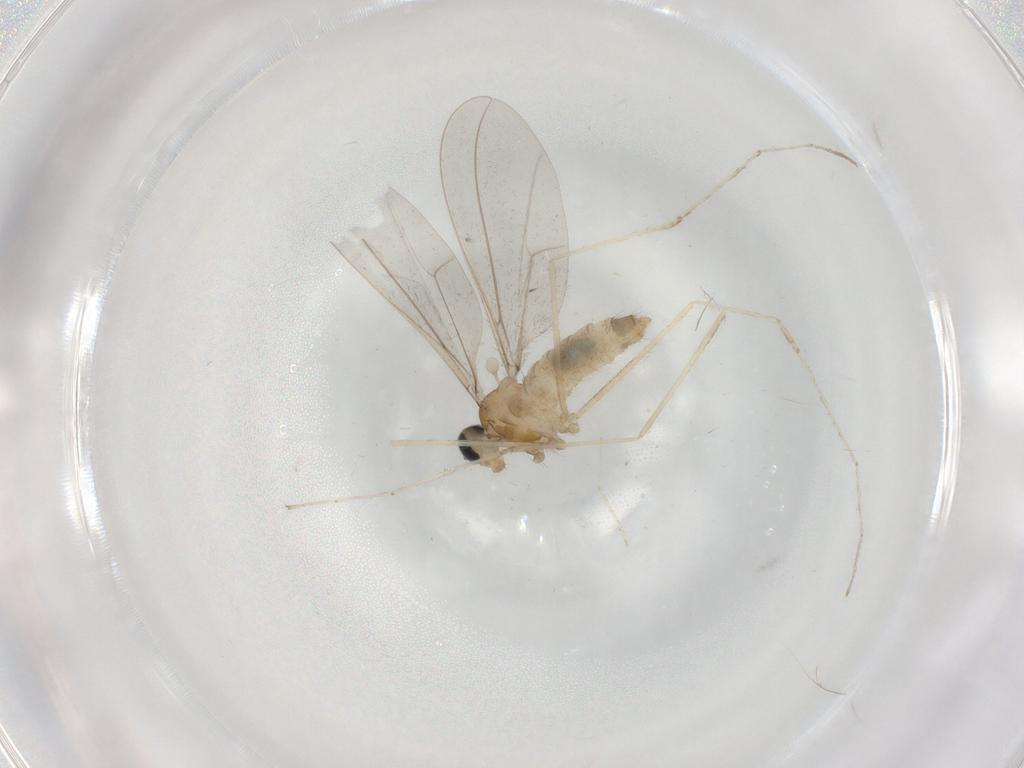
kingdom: Animalia
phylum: Arthropoda
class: Insecta
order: Diptera
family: Cecidomyiidae
